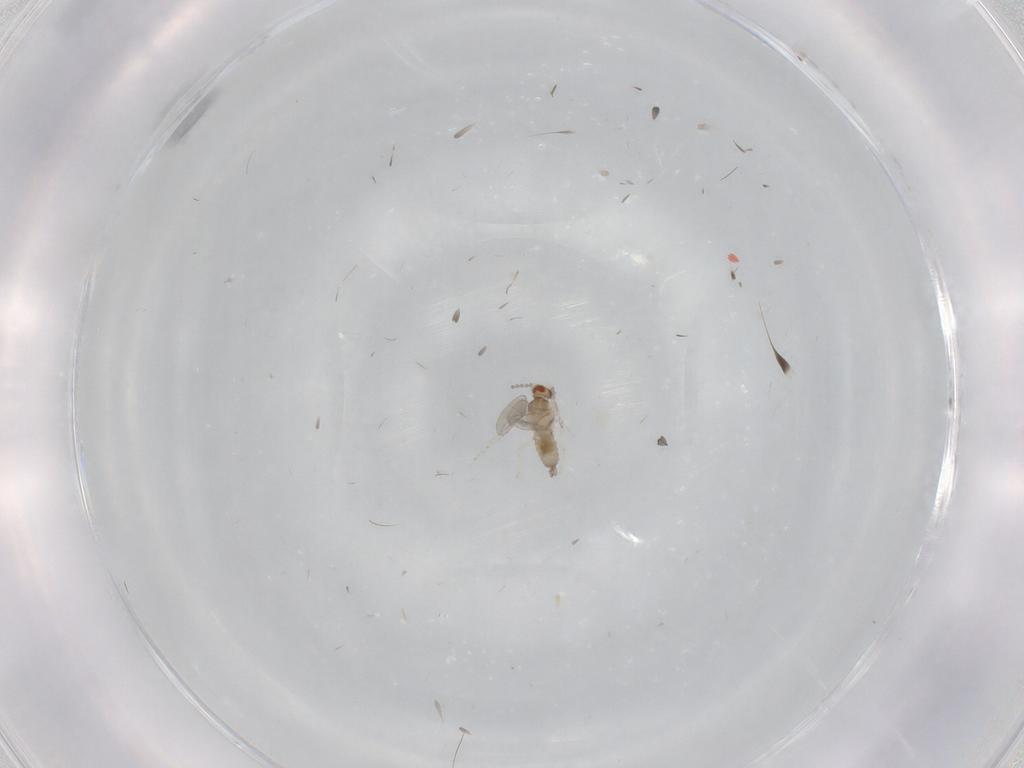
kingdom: Animalia
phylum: Arthropoda
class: Insecta
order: Diptera
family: Cecidomyiidae
